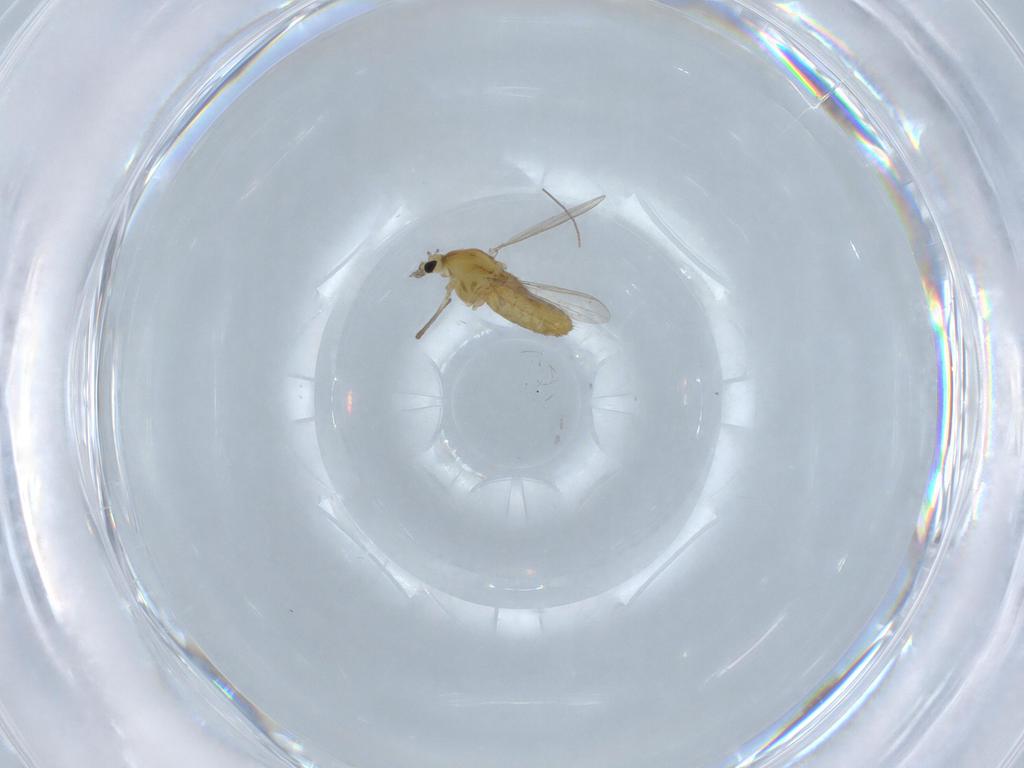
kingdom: Animalia
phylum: Arthropoda
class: Insecta
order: Diptera
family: Chironomidae
